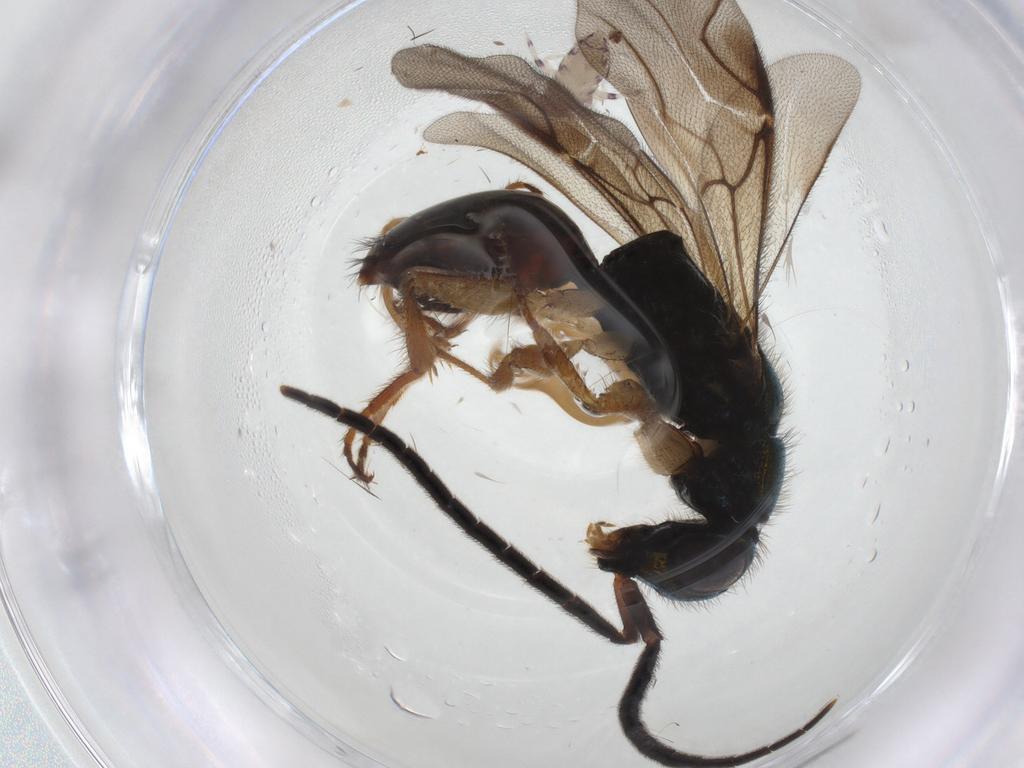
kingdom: Animalia
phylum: Arthropoda
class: Insecta
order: Hymenoptera
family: Chrysididae
